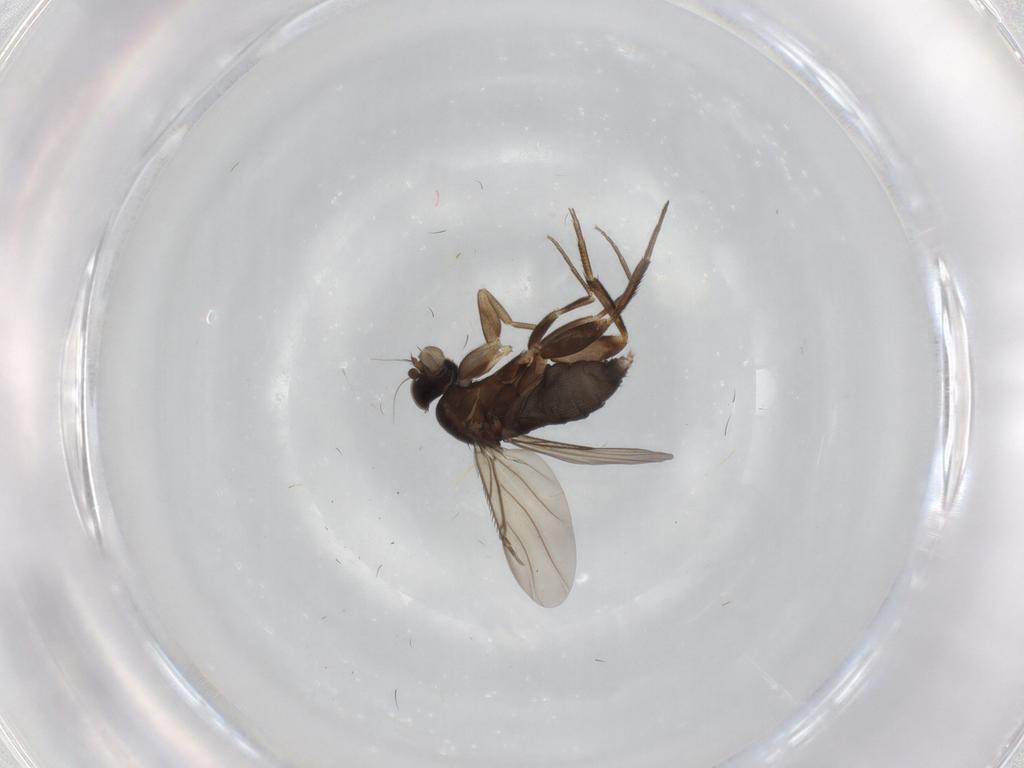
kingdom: Animalia
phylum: Arthropoda
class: Insecta
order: Diptera
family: Phoridae
